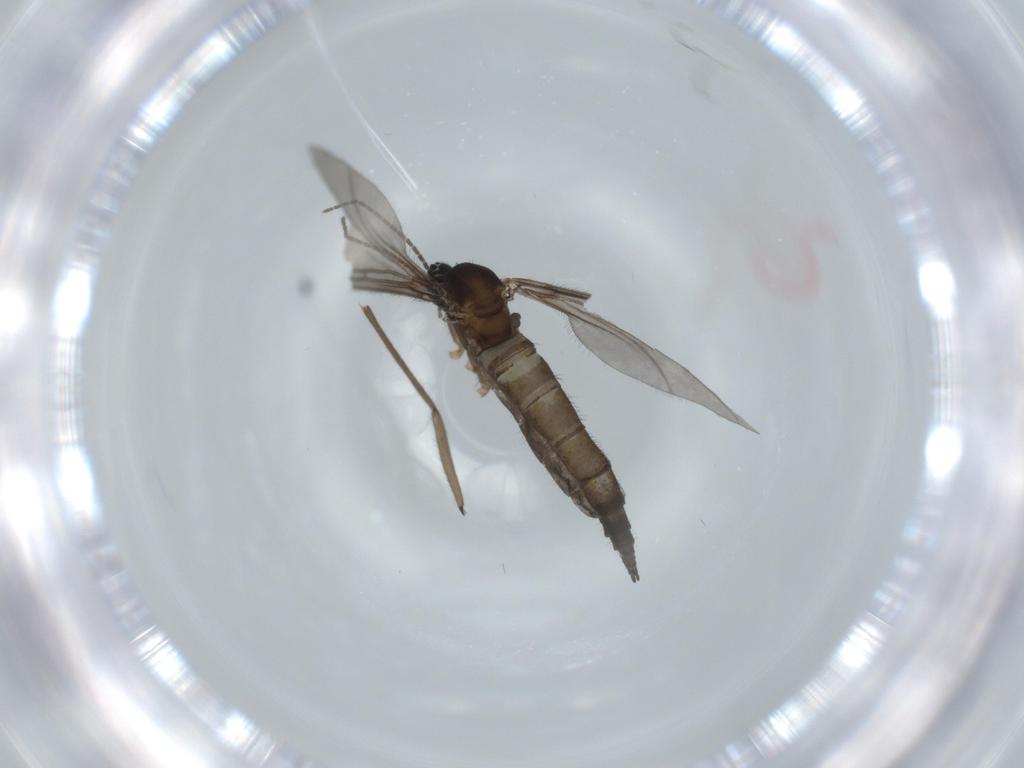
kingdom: Animalia
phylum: Arthropoda
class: Insecta
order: Diptera
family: Sciaridae
